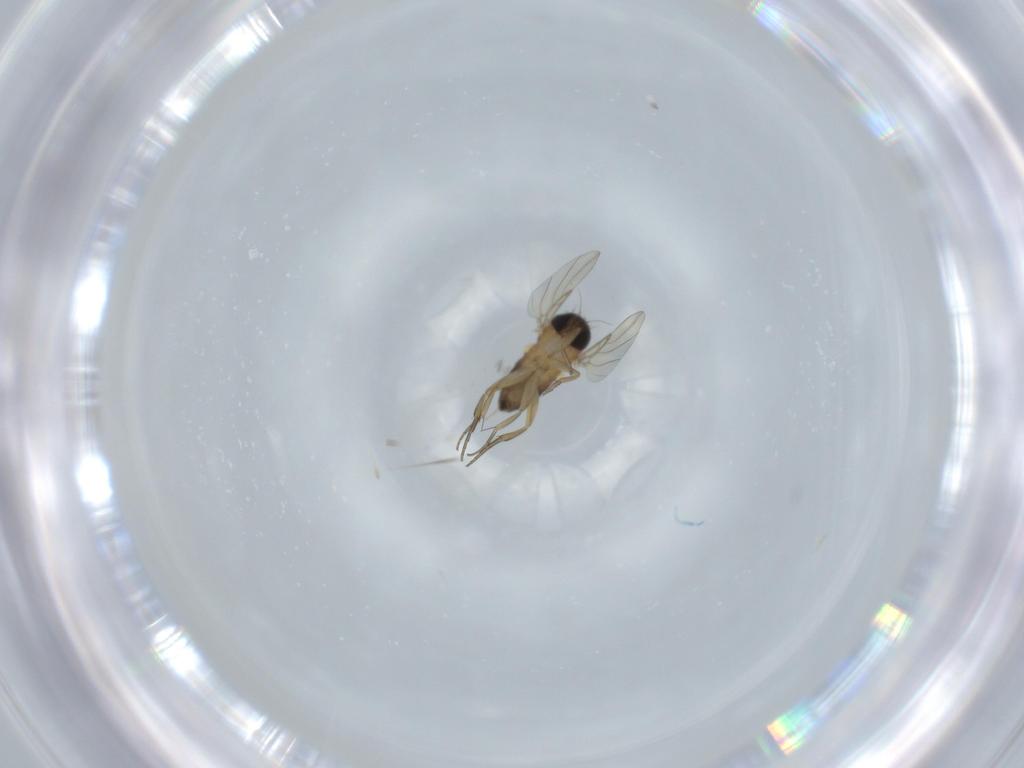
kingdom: Animalia
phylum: Arthropoda
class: Insecta
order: Diptera
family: Phoridae
